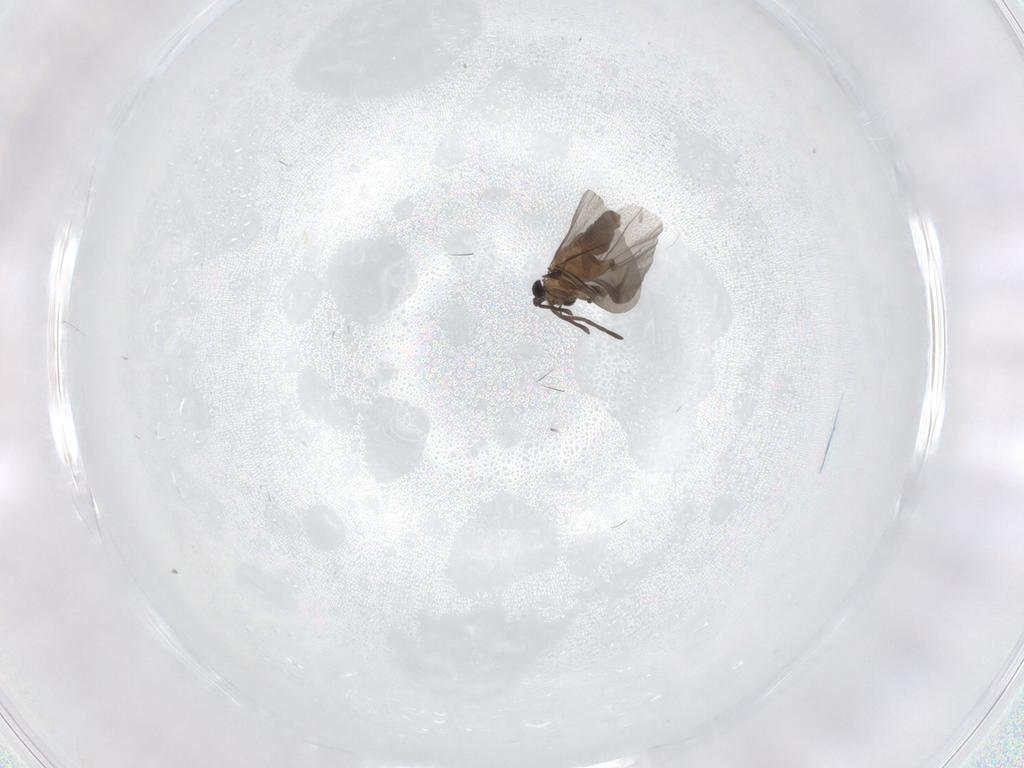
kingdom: Animalia
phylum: Arthropoda
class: Insecta
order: Strepsiptera
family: Myrmecolacidae
